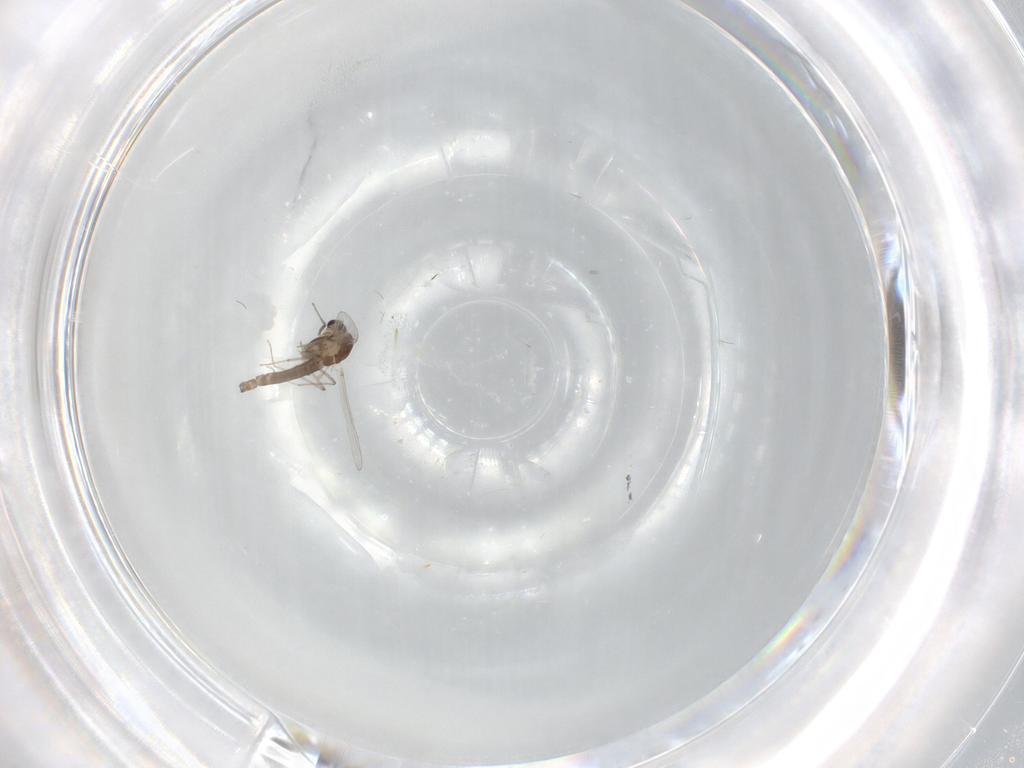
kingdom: Animalia
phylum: Arthropoda
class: Insecta
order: Diptera
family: Chironomidae
